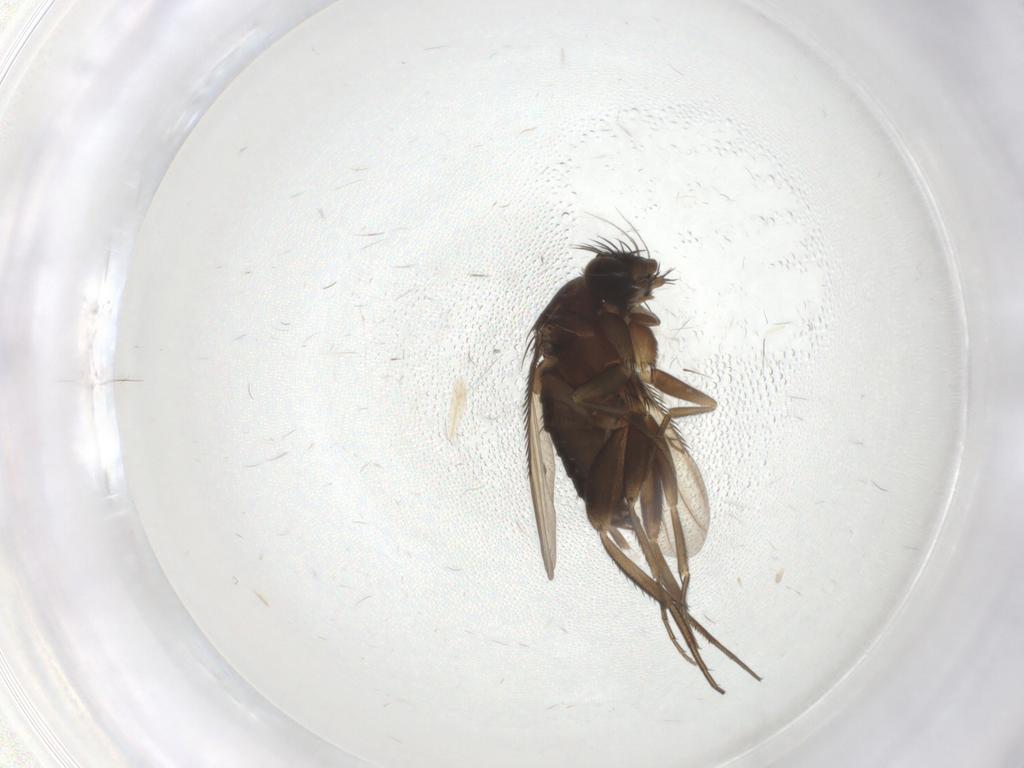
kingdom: Animalia
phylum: Arthropoda
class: Insecta
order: Diptera
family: Phoridae
